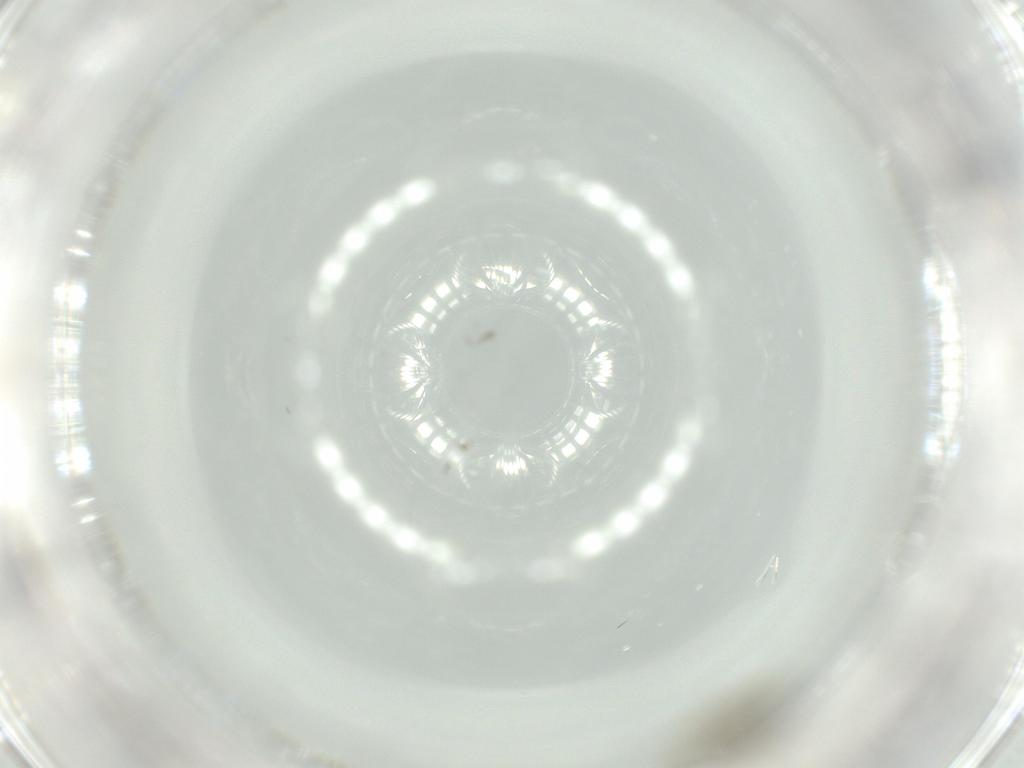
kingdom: Animalia
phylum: Arthropoda
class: Insecta
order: Diptera
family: Chironomidae
